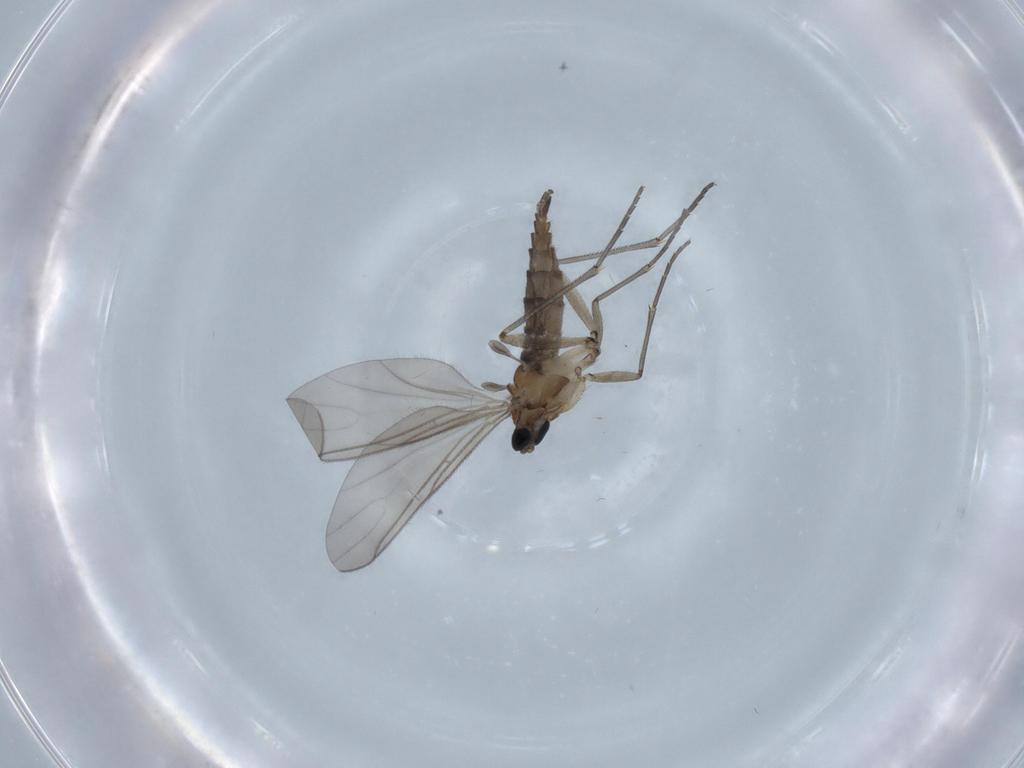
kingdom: Animalia
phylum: Arthropoda
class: Insecta
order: Diptera
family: Sciaridae
